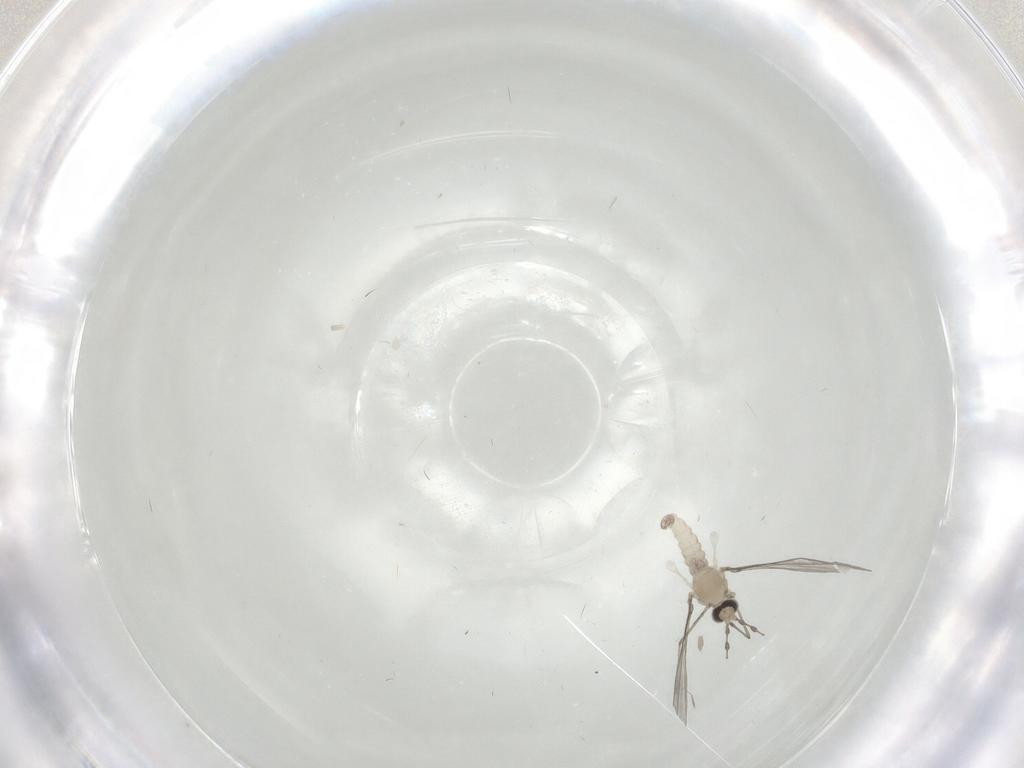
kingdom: Animalia
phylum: Arthropoda
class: Insecta
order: Diptera
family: Cecidomyiidae
